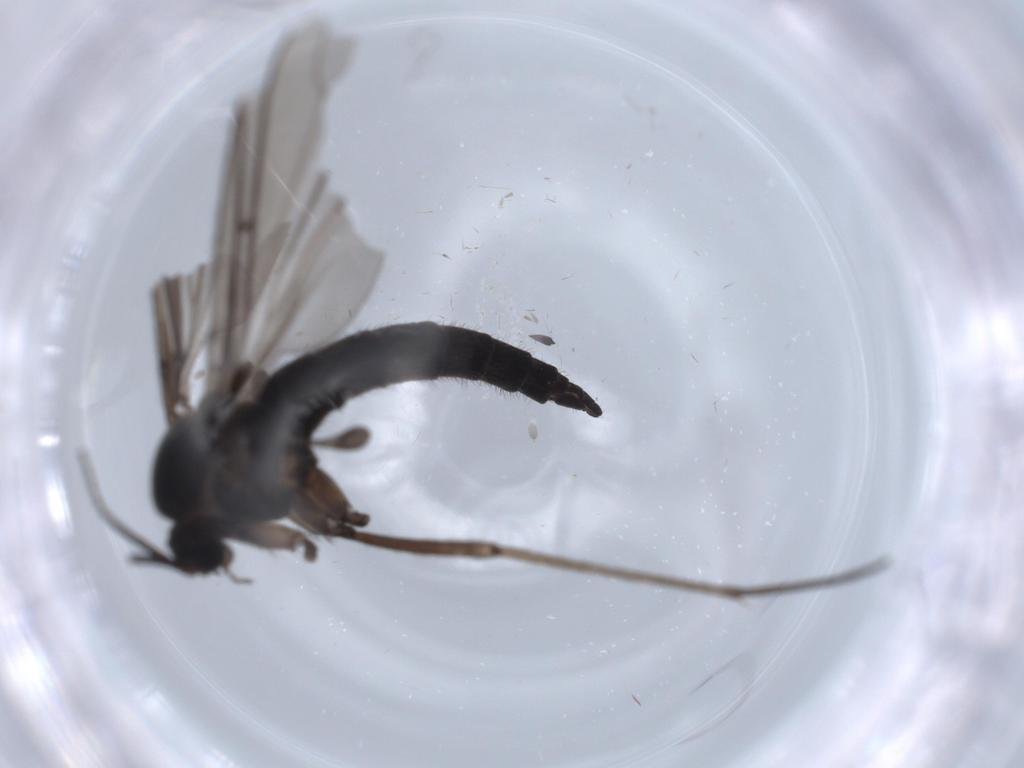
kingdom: Animalia
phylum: Arthropoda
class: Insecta
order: Diptera
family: Sciaridae
